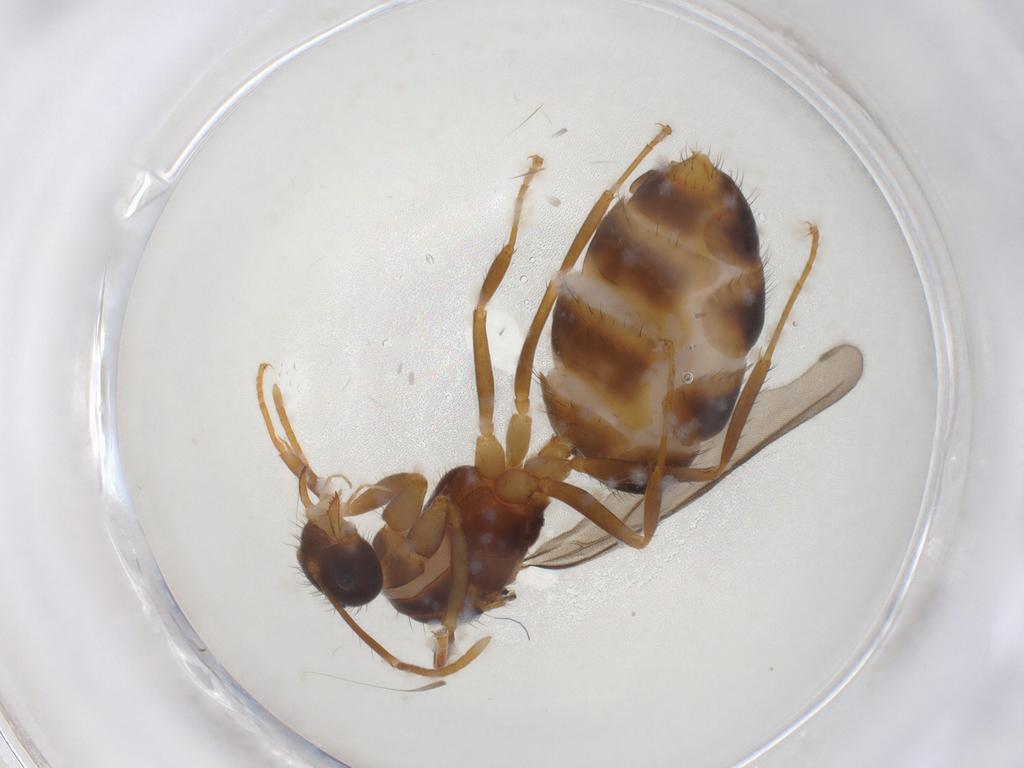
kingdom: Animalia
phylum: Arthropoda
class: Insecta
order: Hymenoptera
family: Formicidae
